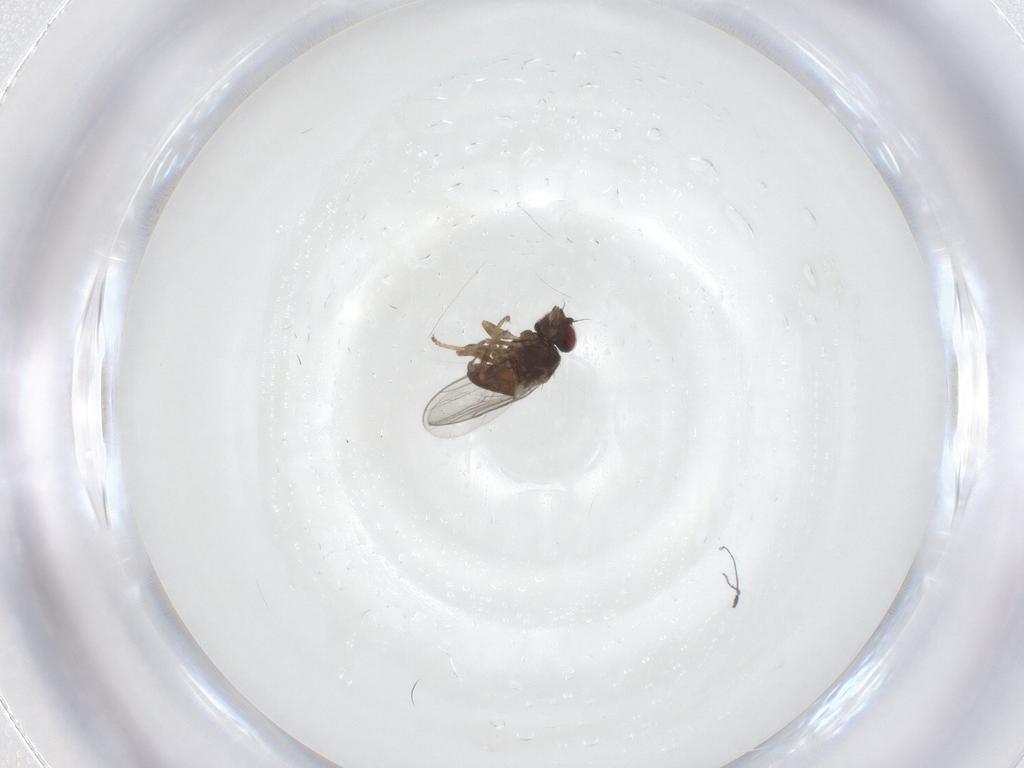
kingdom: Animalia
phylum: Arthropoda
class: Insecta
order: Diptera
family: Chloropidae
